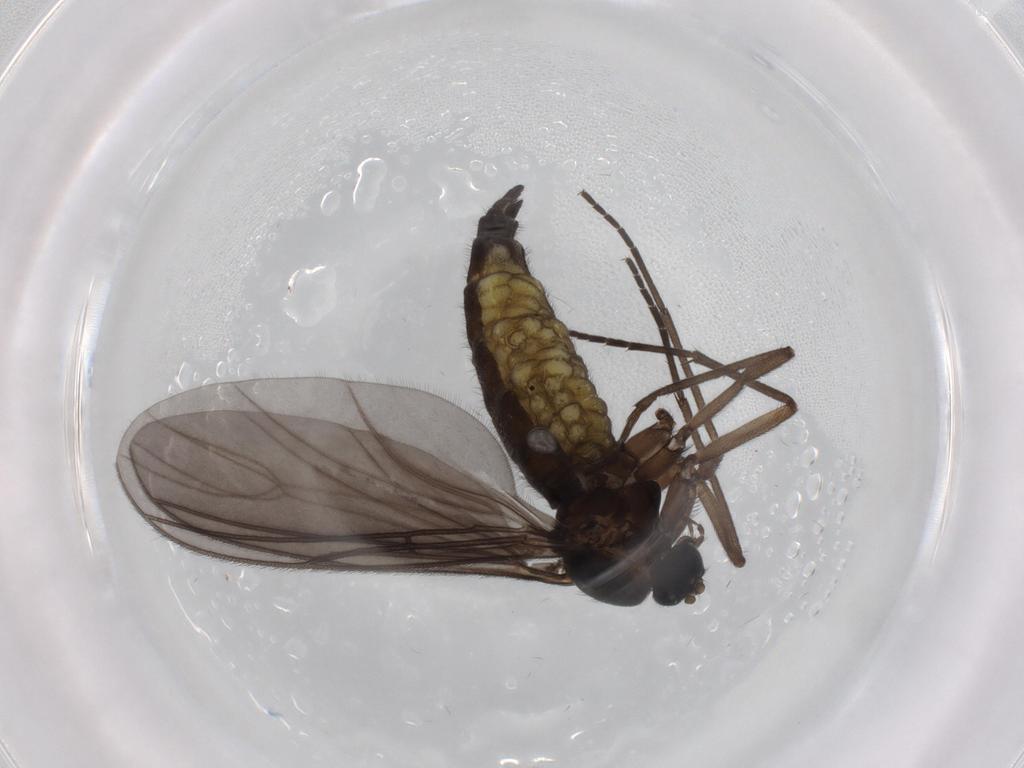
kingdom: Animalia
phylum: Arthropoda
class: Insecta
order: Diptera
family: Sciaridae
